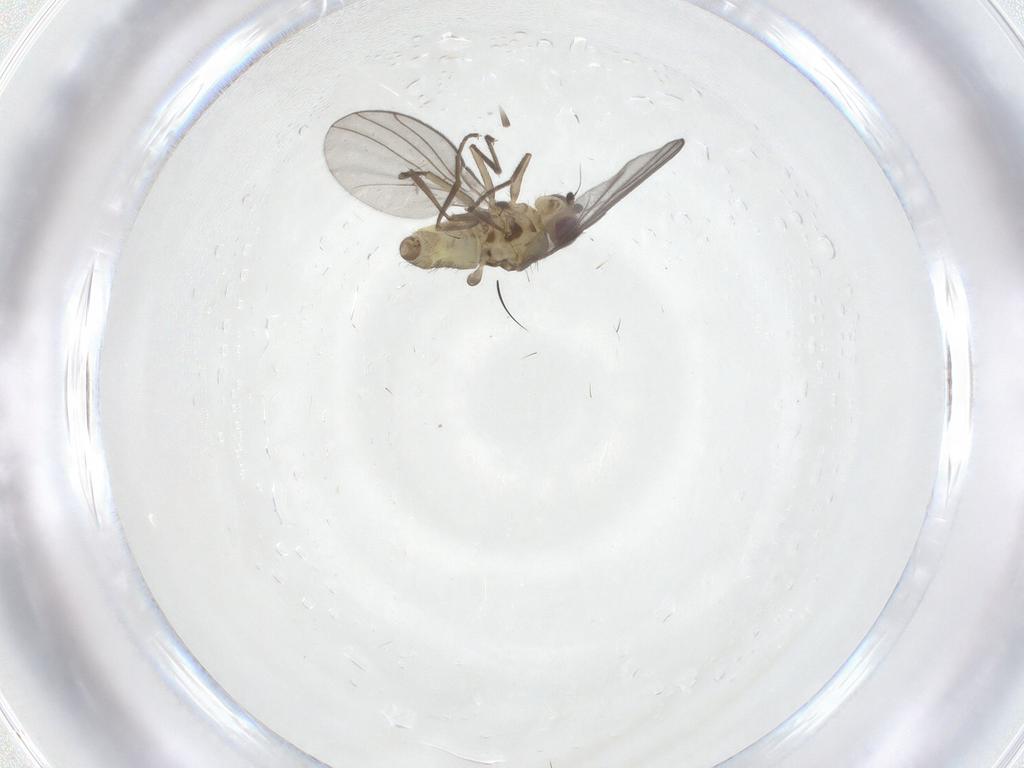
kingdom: Animalia
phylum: Arthropoda
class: Insecta
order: Diptera
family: Agromyzidae
